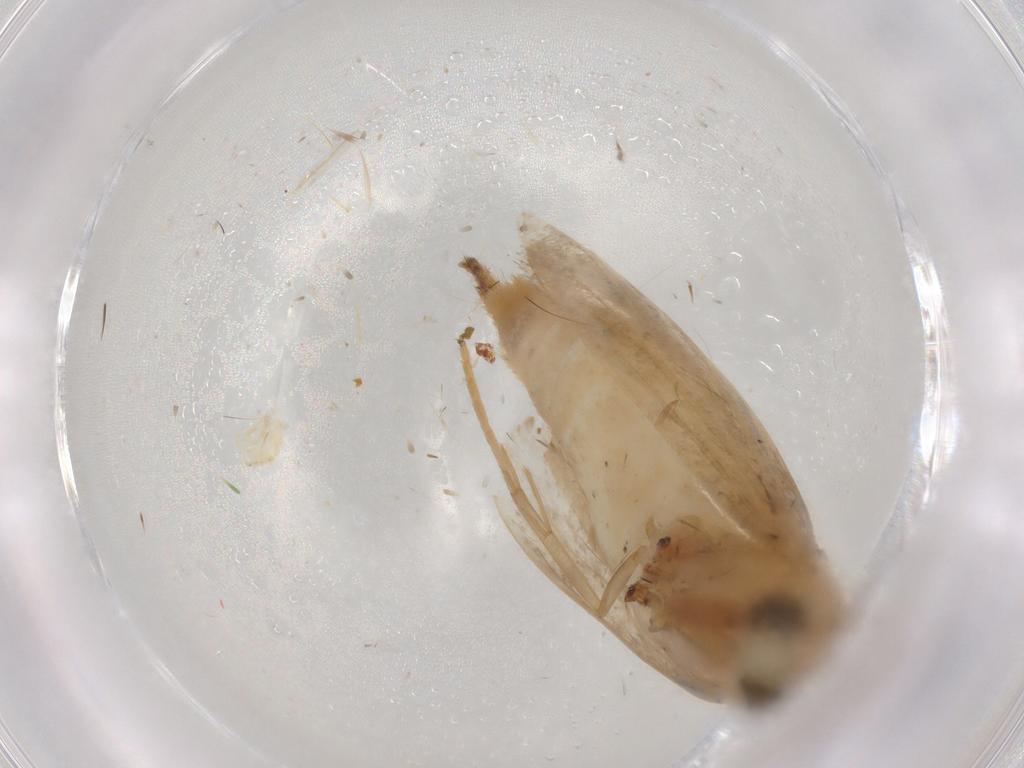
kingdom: Animalia
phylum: Arthropoda
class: Insecta
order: Lepidoptera
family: Pyralidae
